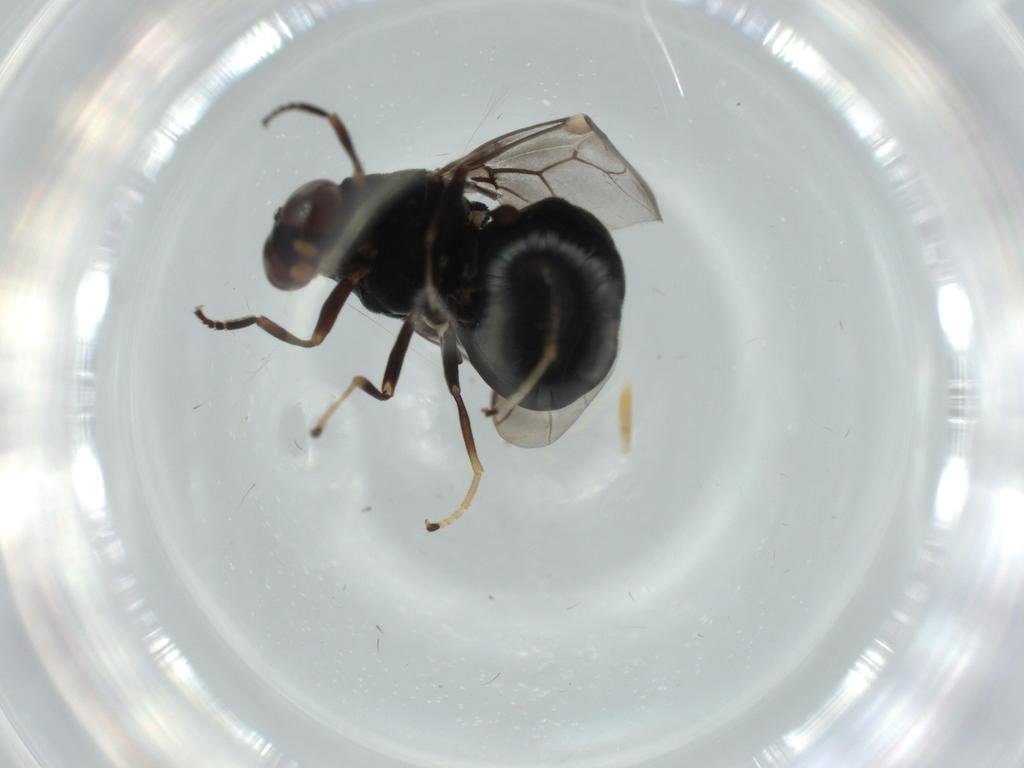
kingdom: Animalia
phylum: Arthropoda
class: Insecta
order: Diptera
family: Stratiomyidae
